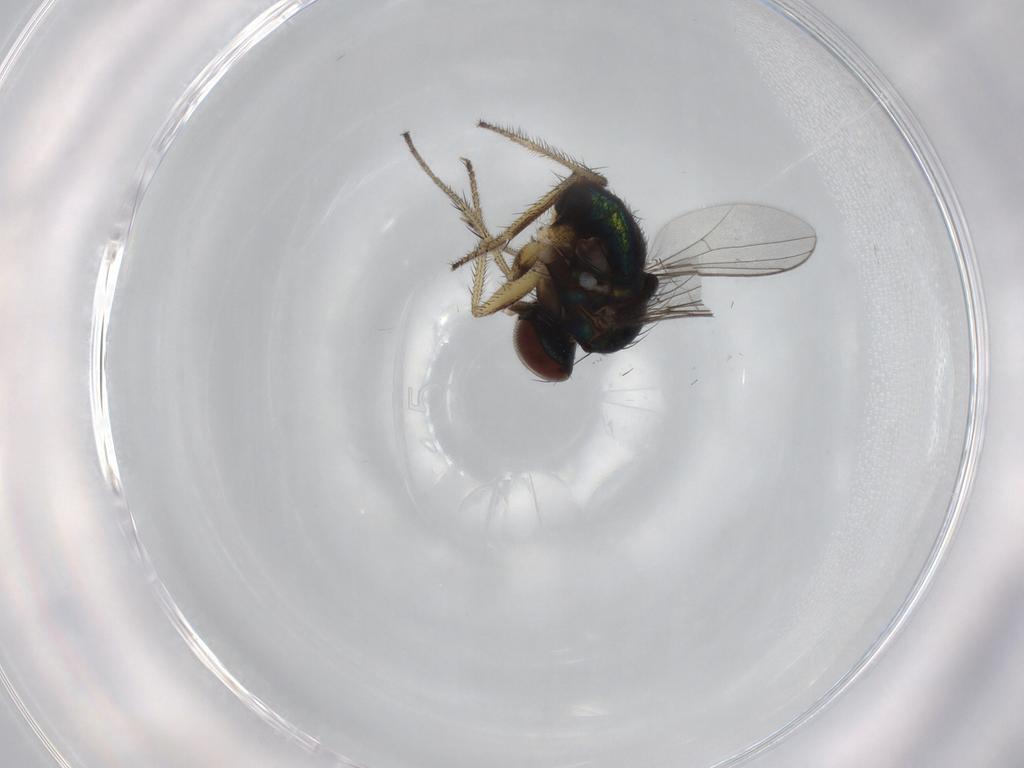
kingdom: Animalia
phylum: Arthropoda
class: Insecta
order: Diptera
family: Dolichopodidae
